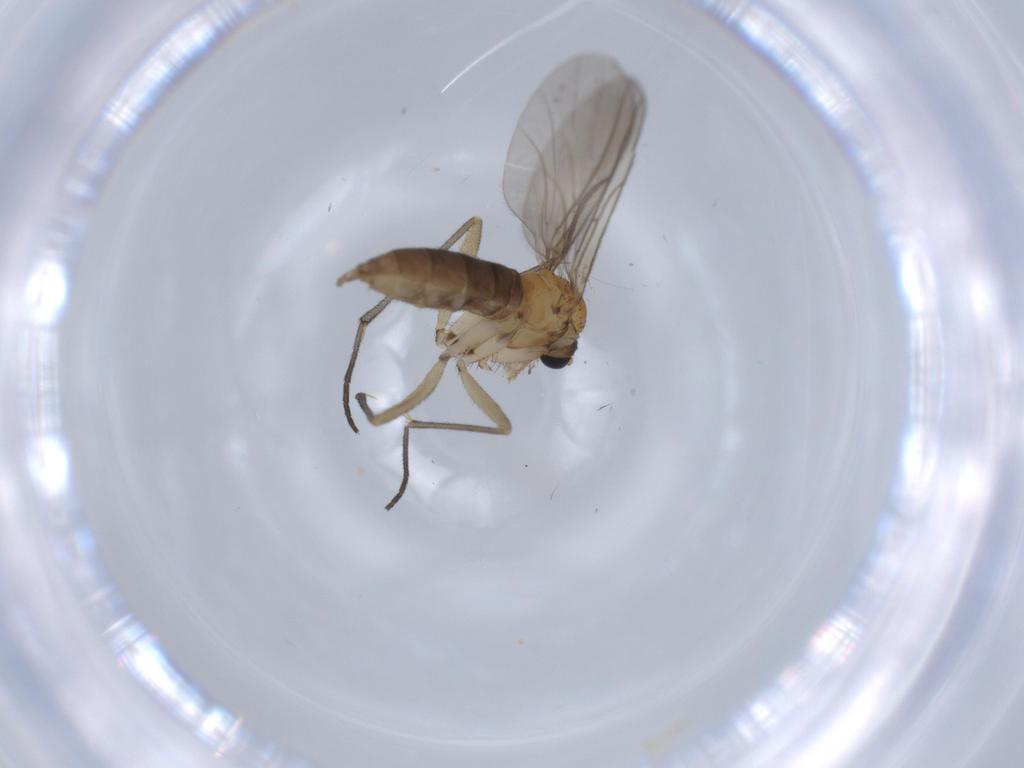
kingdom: Animalia
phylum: Arthropoda
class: Insecta
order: Diptera
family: Sciaridae
